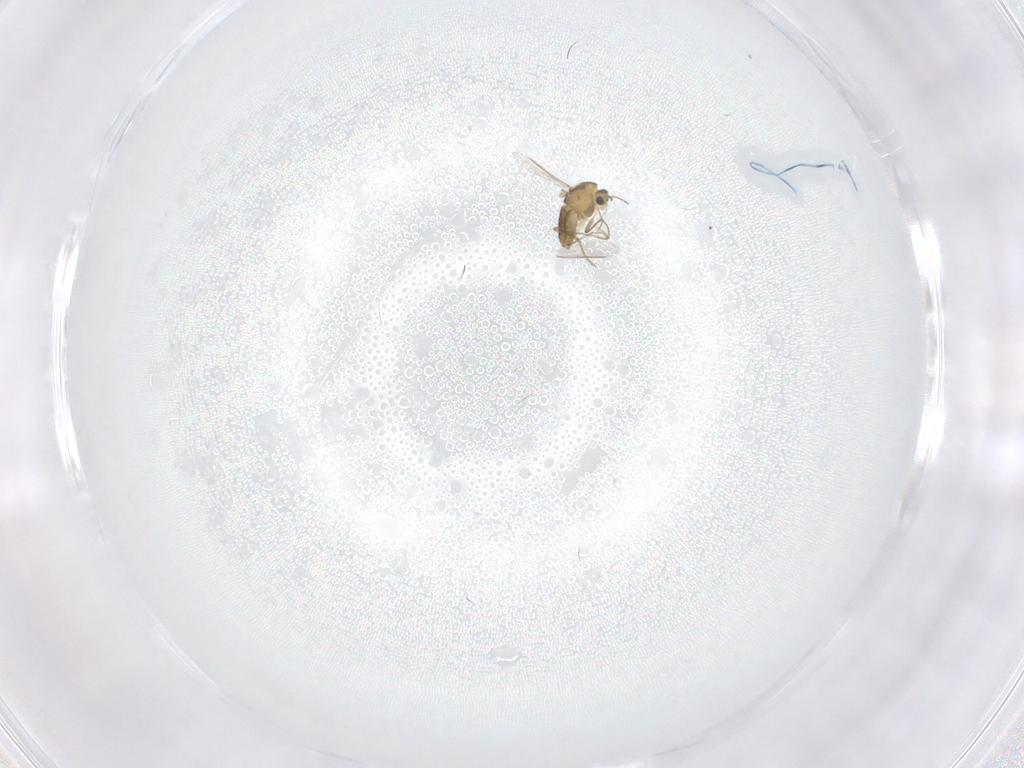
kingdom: Animalia
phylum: Arthropoda
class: Insecta
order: Diptera
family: Chironomidae
